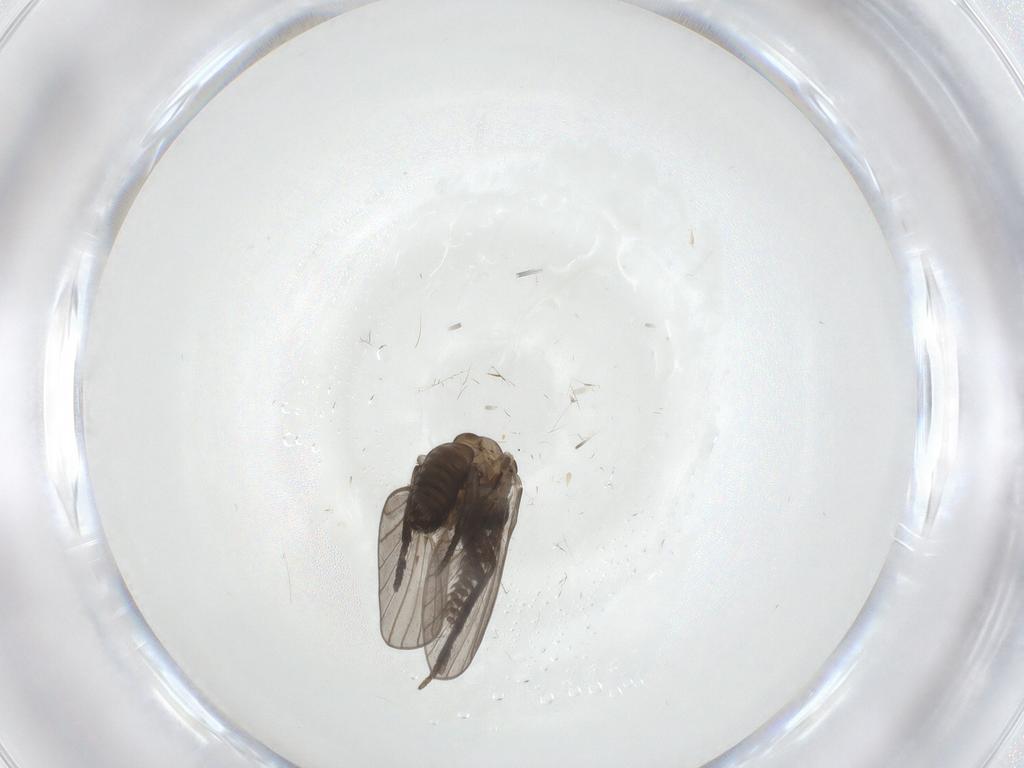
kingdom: Animalia
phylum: Arthropoda
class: Insecta
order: Diptera
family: Psychodidae
